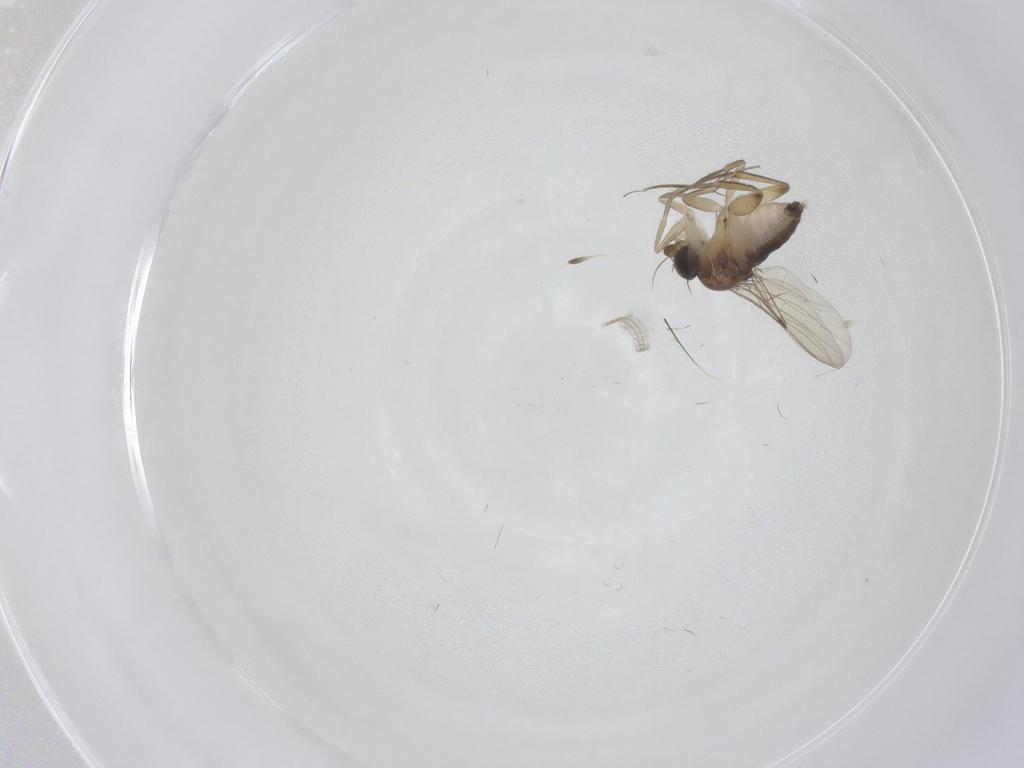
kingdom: Animalia
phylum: Arthropoda
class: Insecta
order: Diptera
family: Phoridae
